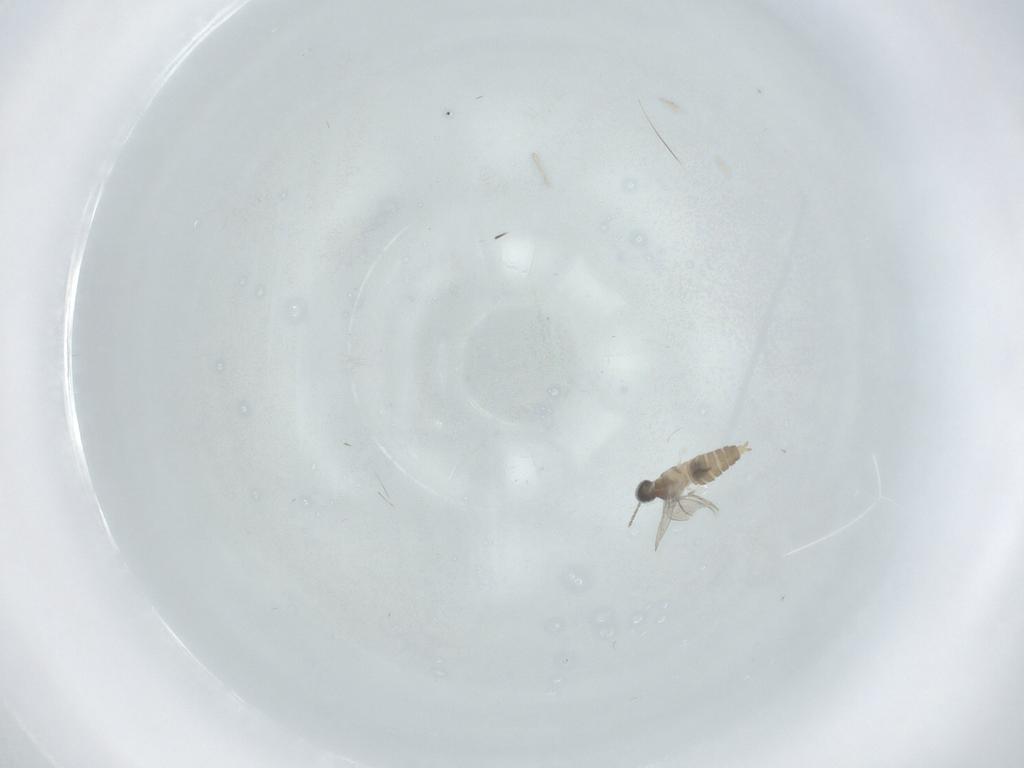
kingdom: Animalia
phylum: Arthropoda
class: Insecta
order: Diptera
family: Cecidomyiidae
